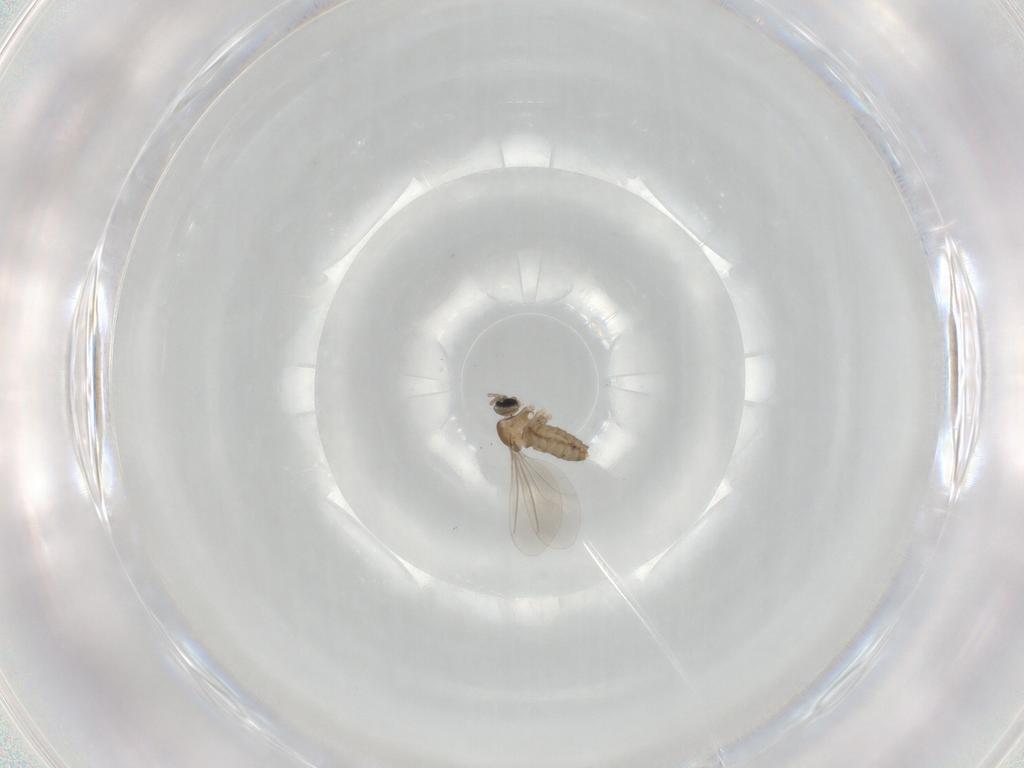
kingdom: Animalia
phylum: Arthropoda
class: Insecta
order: Diptera
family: Cecidomyiidae
